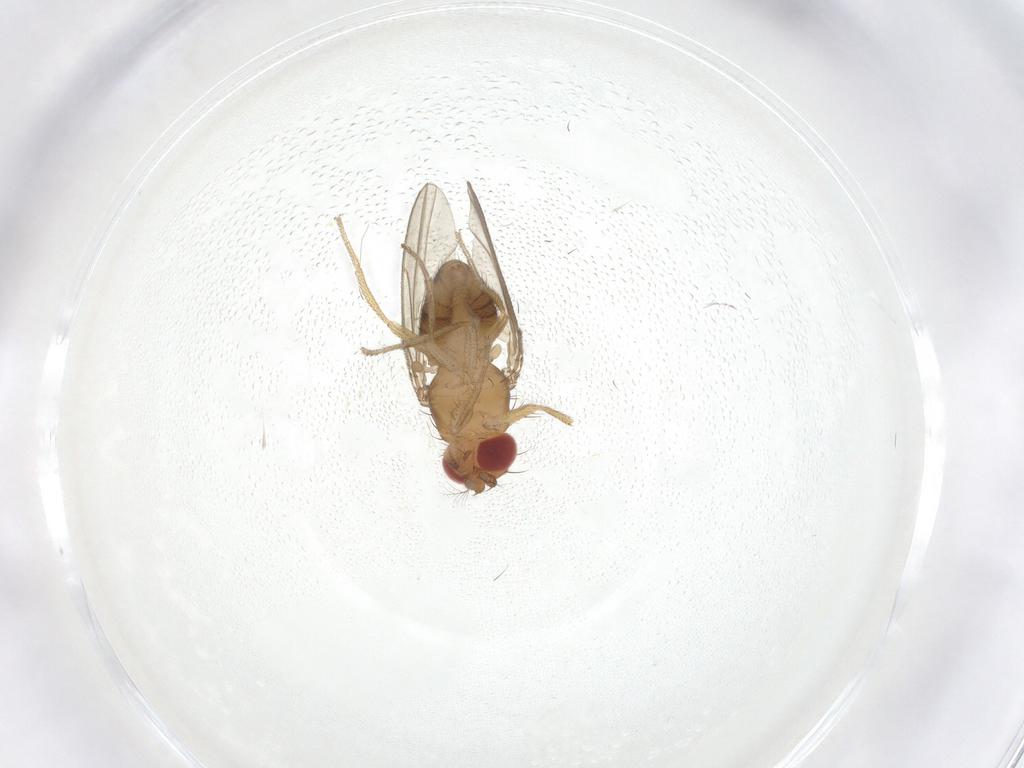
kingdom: Animalia
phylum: Arthropoda
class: Insecta
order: Diptera
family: Drosophilidae
